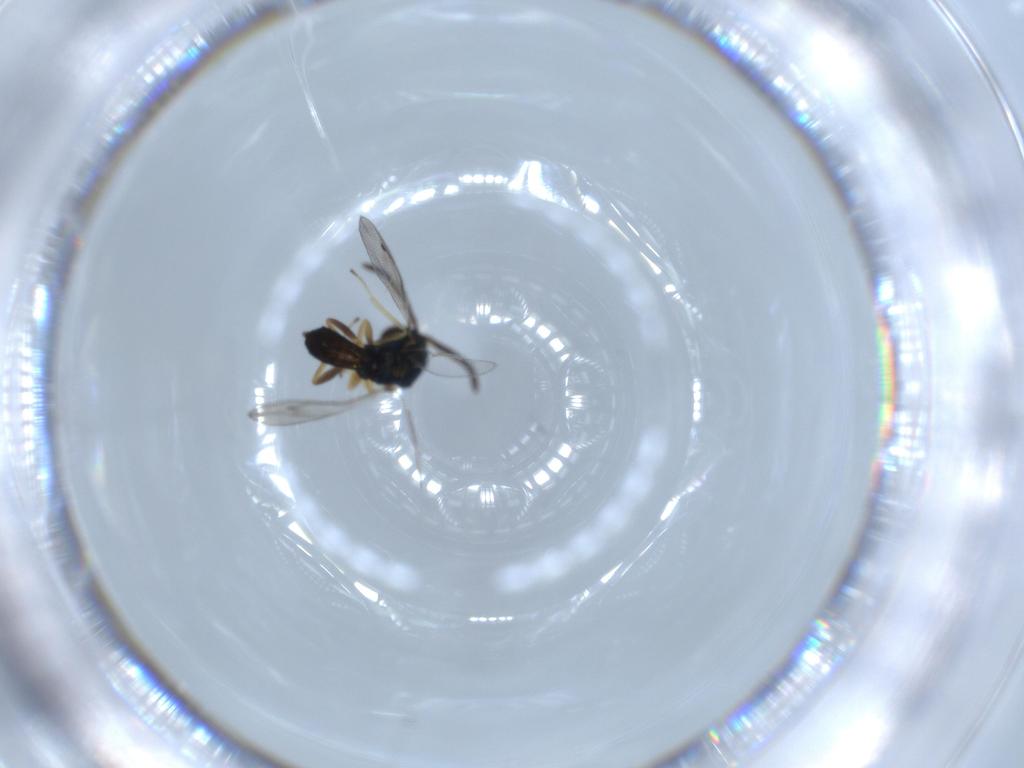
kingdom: Animalia
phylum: Arthropoda
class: Insecta
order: Hymenoptera
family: Pteromalidae
